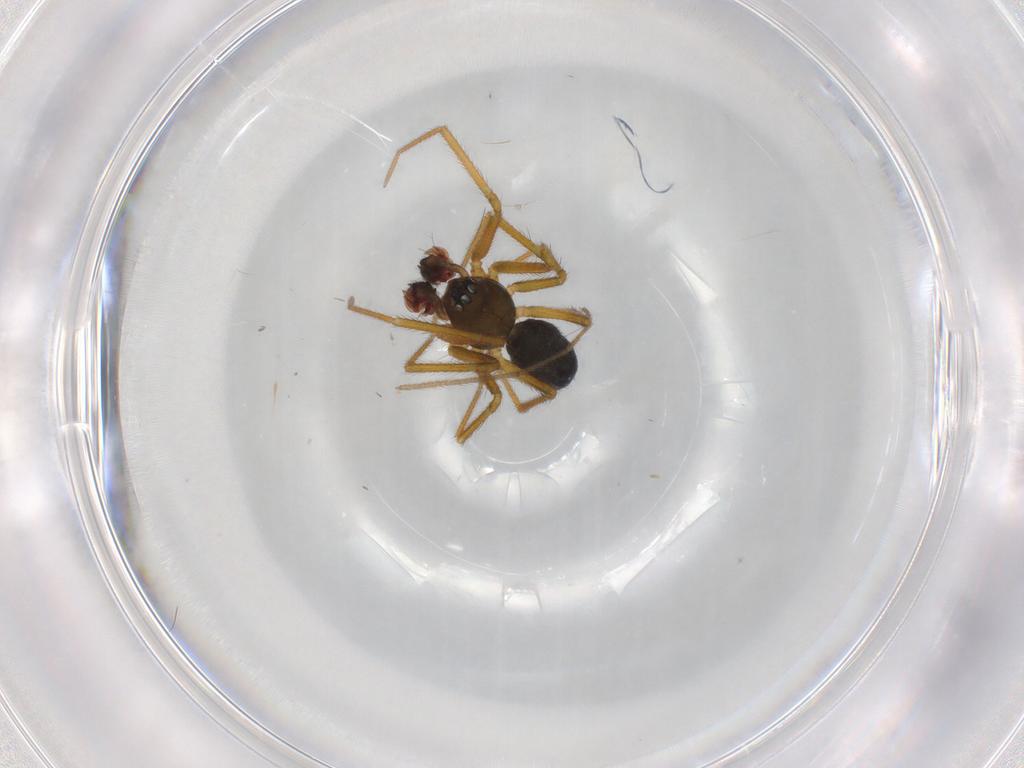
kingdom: Animalia
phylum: Arthropoda
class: Arachnida
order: Araneae
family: Linyphiidae
